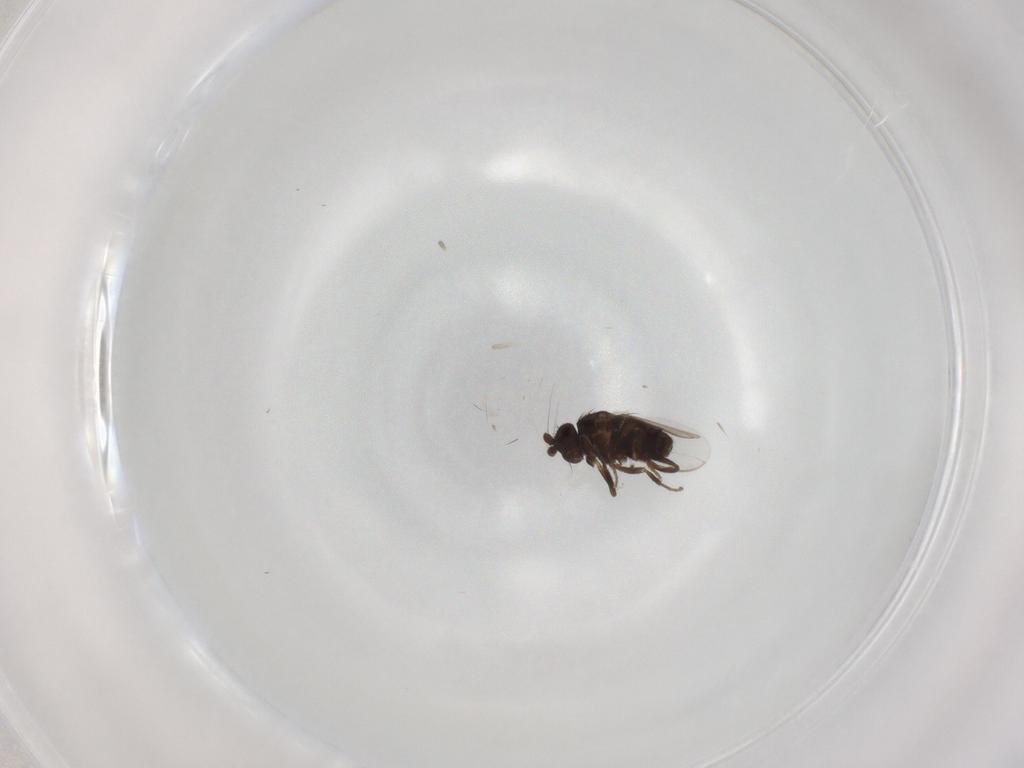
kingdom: Animalia
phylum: Arthropoda
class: Insecta
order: Diptera
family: Sphaeroceridae
